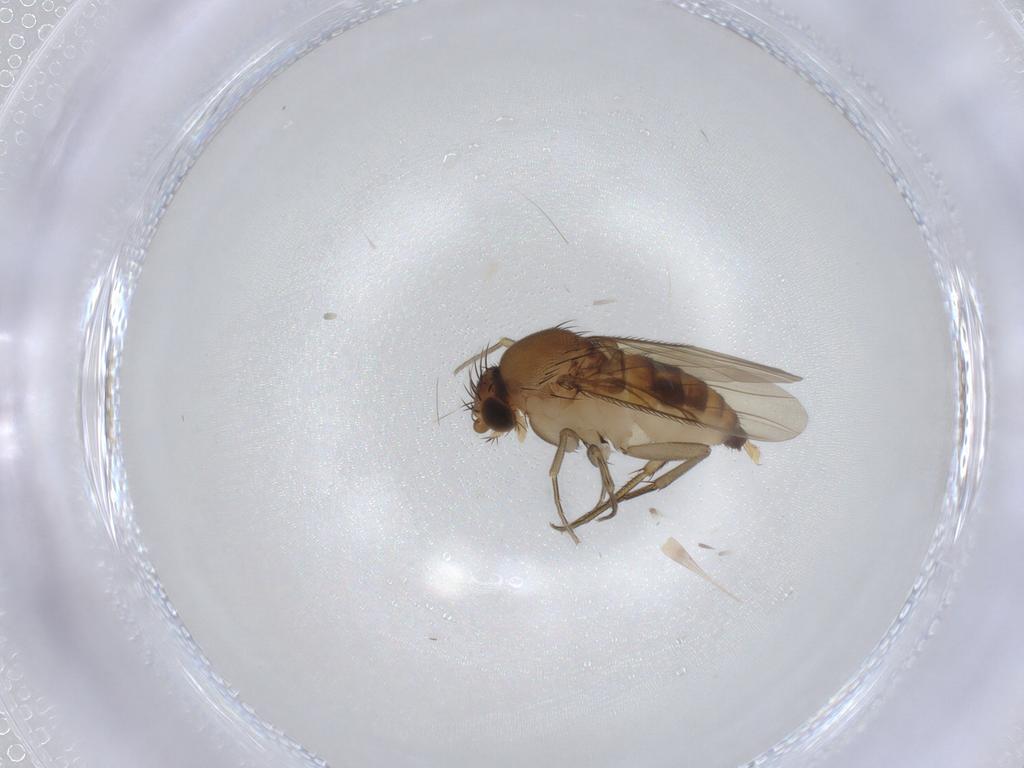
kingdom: Animalia
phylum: Arthropoda
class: Insecta
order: Diptera
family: Phoridae
